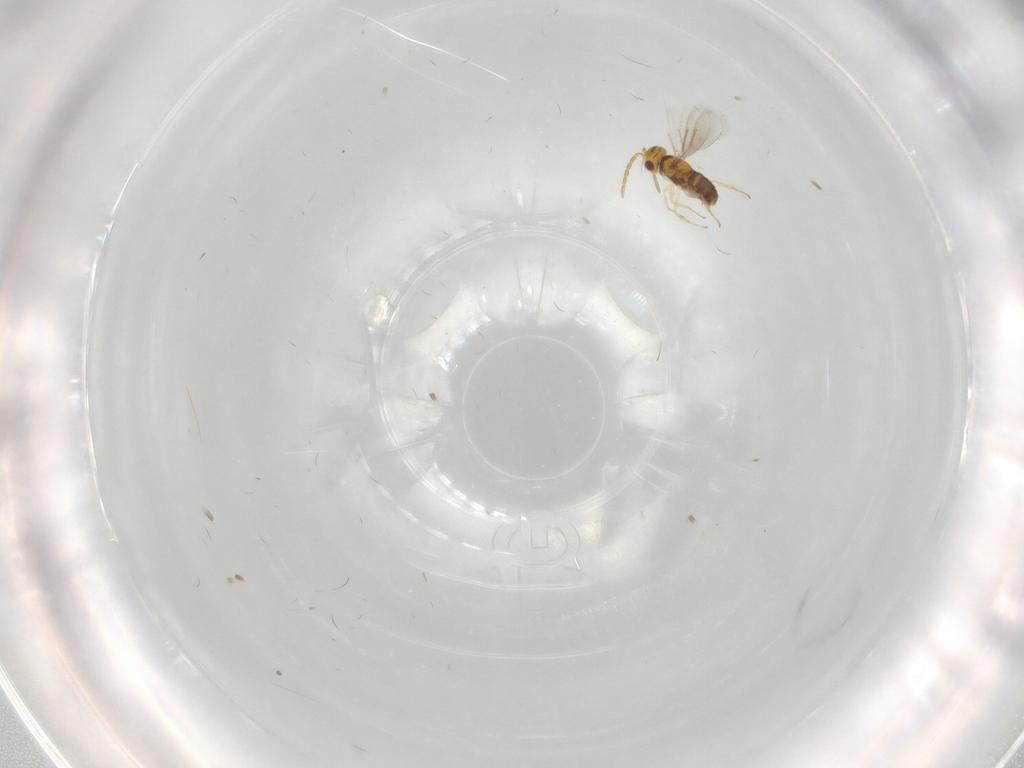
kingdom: Animalia
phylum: Arthropoda
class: Insecta
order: Hymenoptera
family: Aphelinidae
